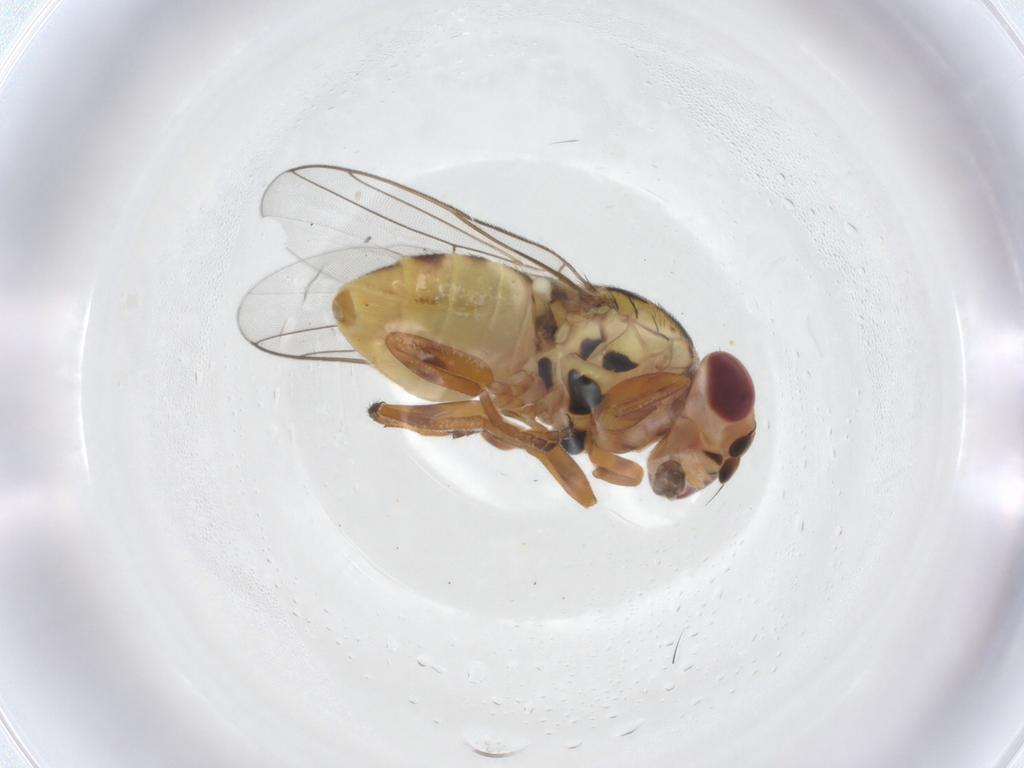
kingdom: Animalia
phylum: Arthropoda
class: Insecta
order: Diptera
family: Chloropidae
